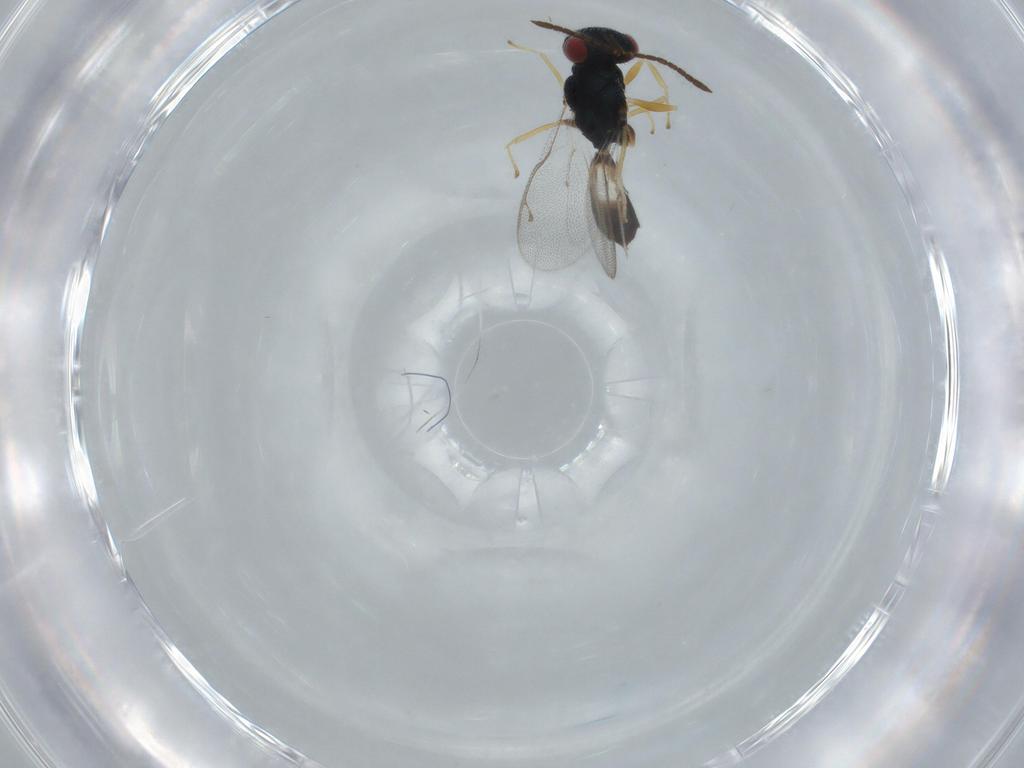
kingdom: Animalia
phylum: Arthropoda
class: Insecta
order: Hymenoptera
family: Pteromalidae
